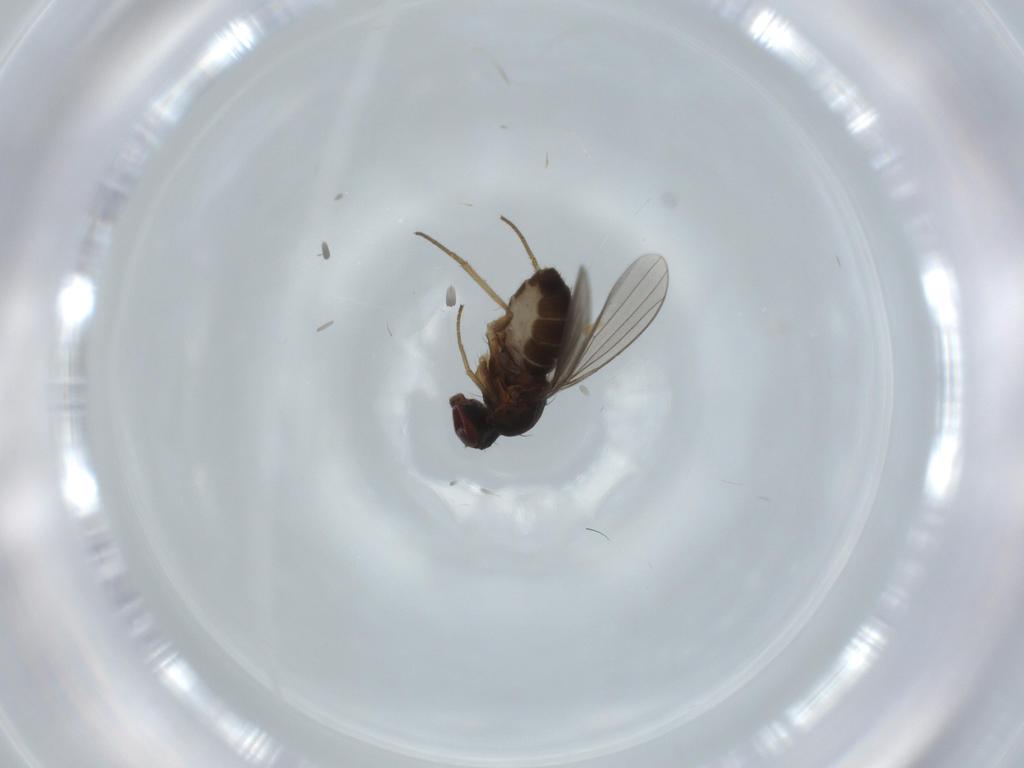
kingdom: Animalia
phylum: Arthropoda
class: Insecta
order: Diptera
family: Dolichopodidae
